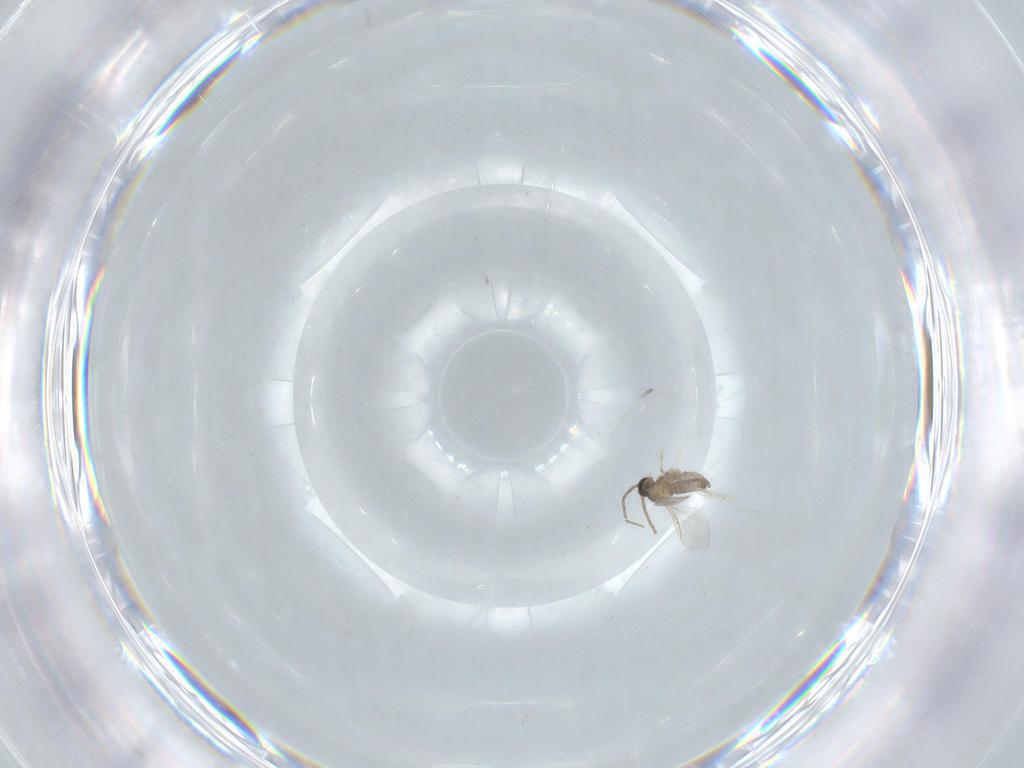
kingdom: Animalia
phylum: Arthropoda
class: Insecta
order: Diptera
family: Cecidomyiidae
